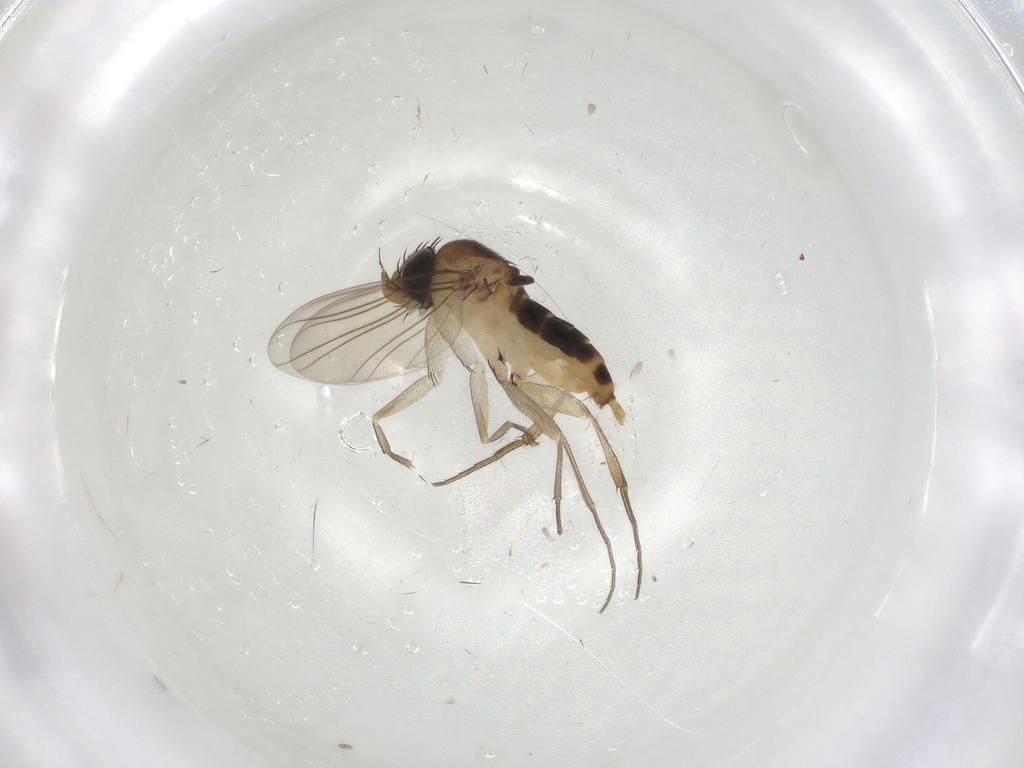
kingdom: Animalia
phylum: Arthropoda
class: Insecta
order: Diptera
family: Phoridae
